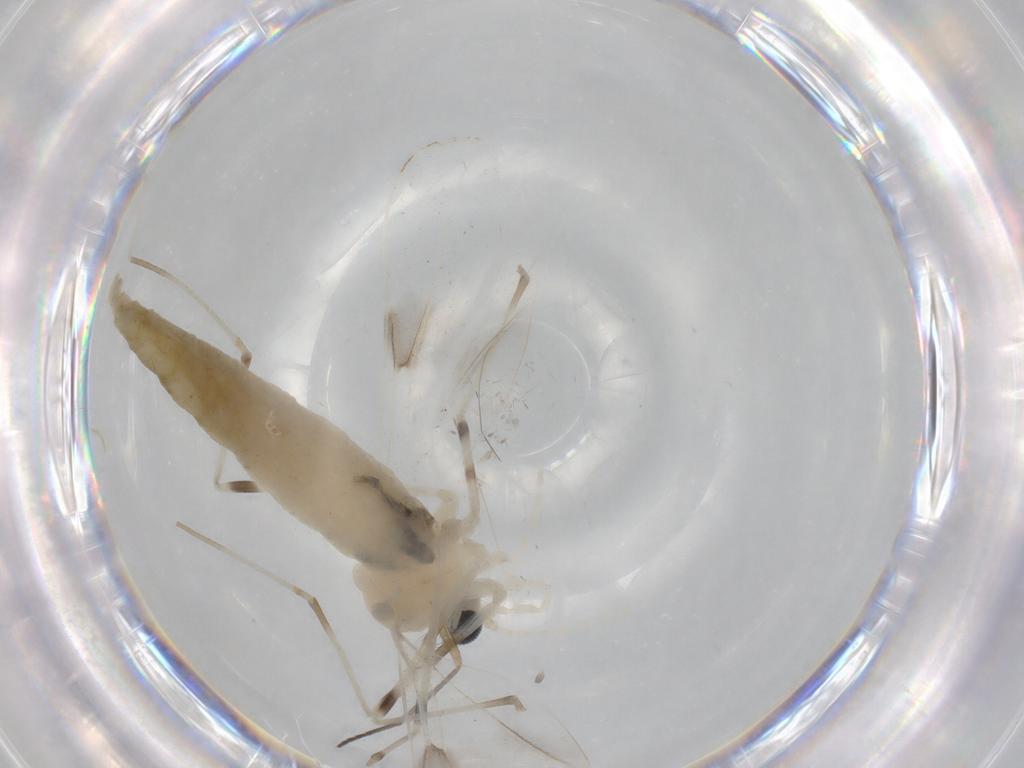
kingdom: Animalia
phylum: Arthropoda
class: Insecta
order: Diptera
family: Cecidomyiidae
